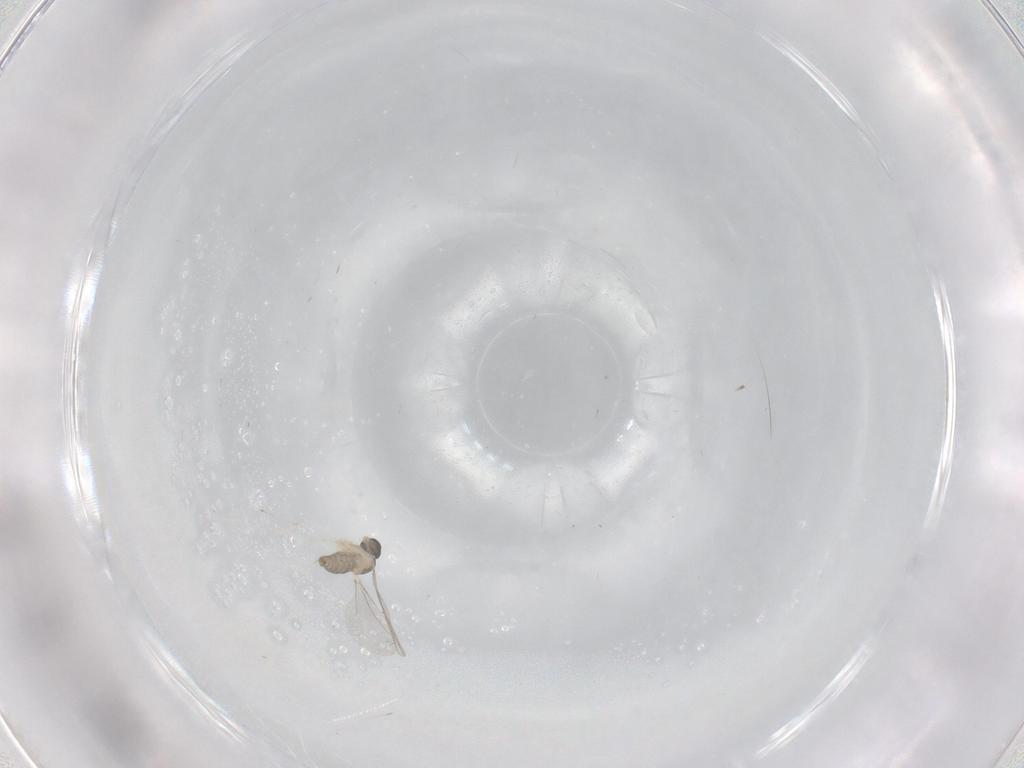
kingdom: Animalia
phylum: Arthropoda
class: Insecta
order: Diptera
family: Cecidomyiidae
